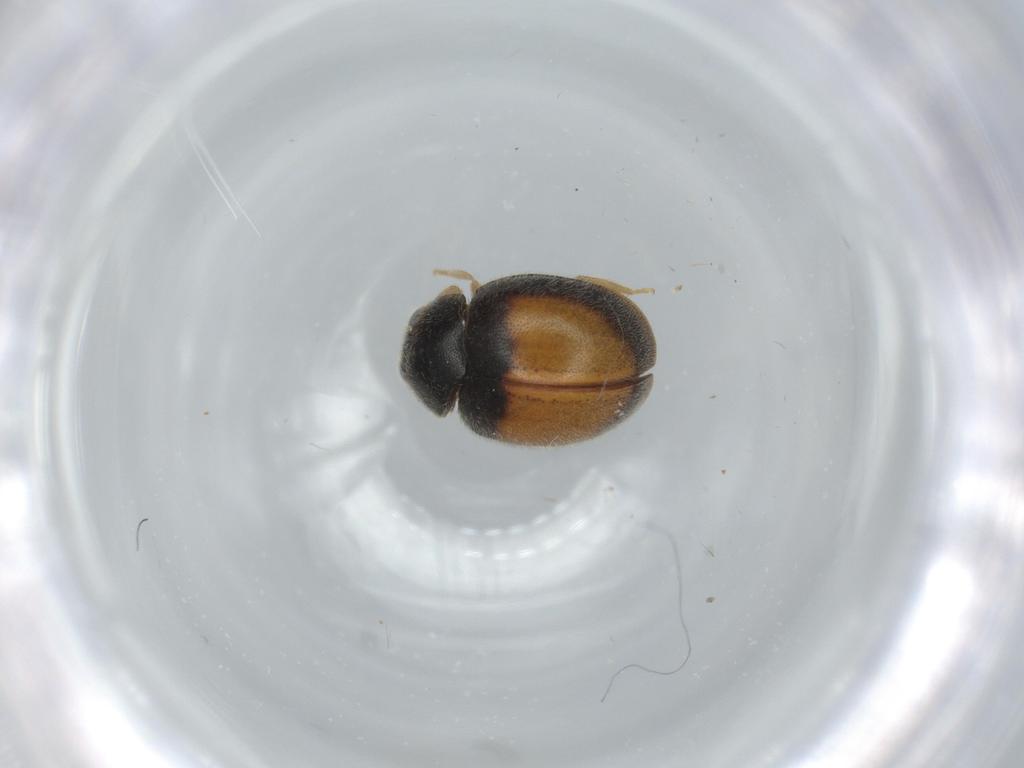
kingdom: Animalia
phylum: Arthropoda
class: Insecta
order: Coleoptera
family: Coccinellidae
